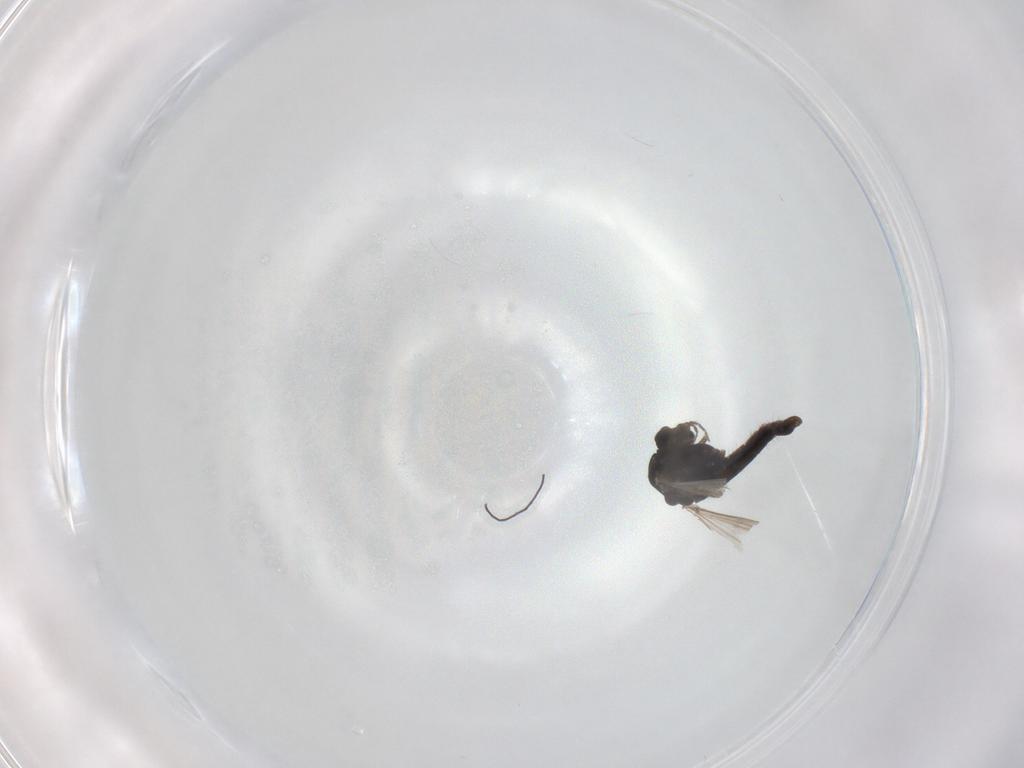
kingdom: Animalia
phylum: Arthropoda
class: Insecta
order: Diptera
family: Chironomidae
